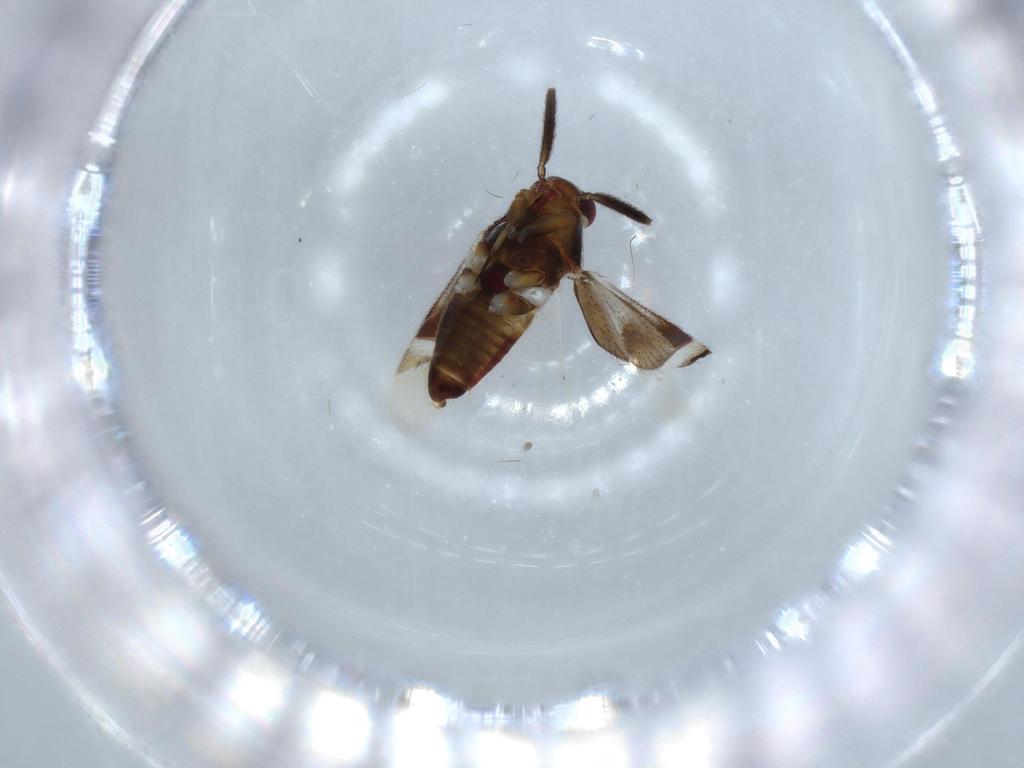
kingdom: Animalia
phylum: Arthropoda
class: Insecta
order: Hemiptera
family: Miridae
